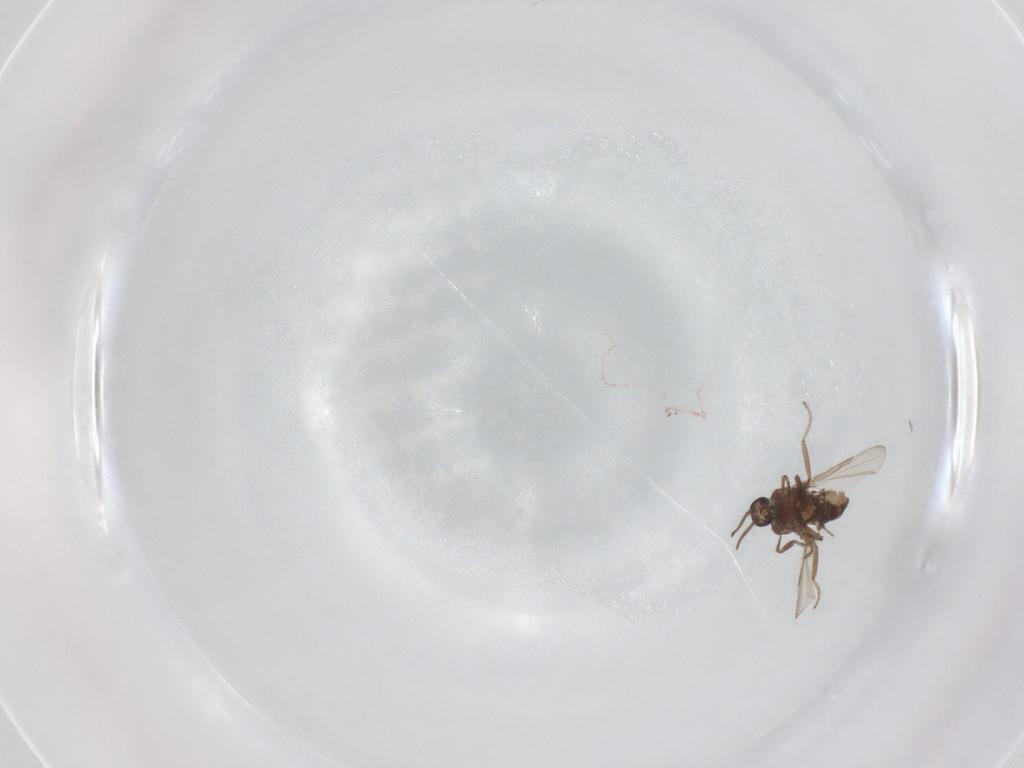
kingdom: Animalia
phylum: Arthropoda
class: Insecta
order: Diptera
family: Ceratopogonidae
